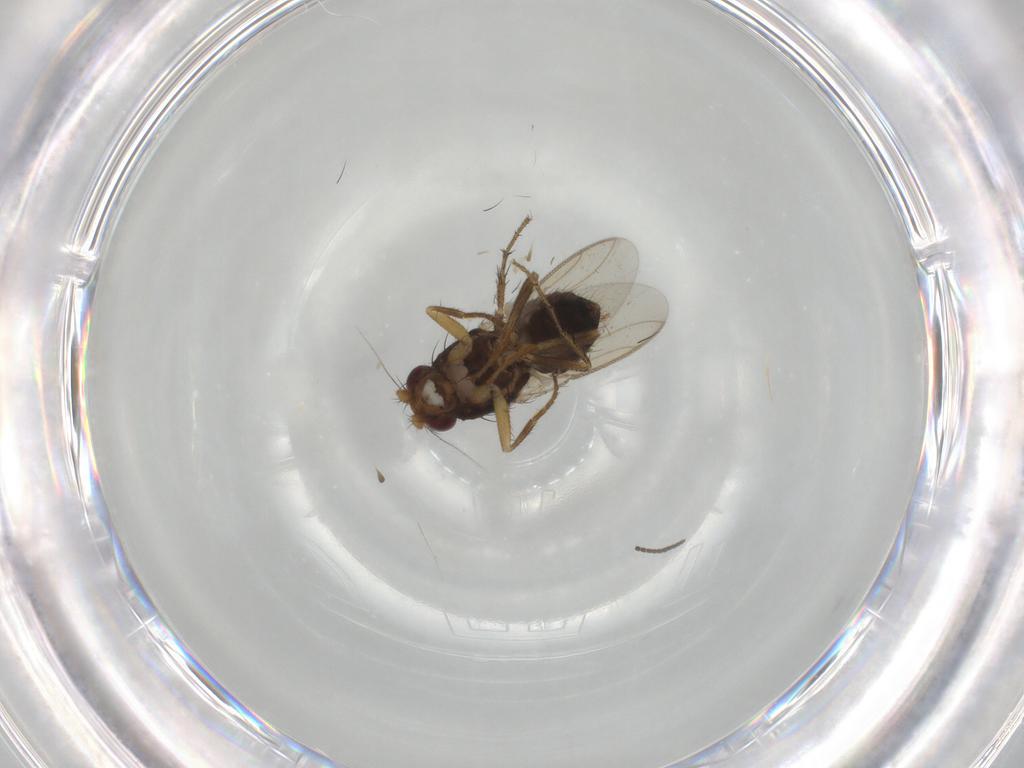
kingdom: Animalia
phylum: Arthropoda
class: Insecta
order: Diptera
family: Sphaeroceridae
